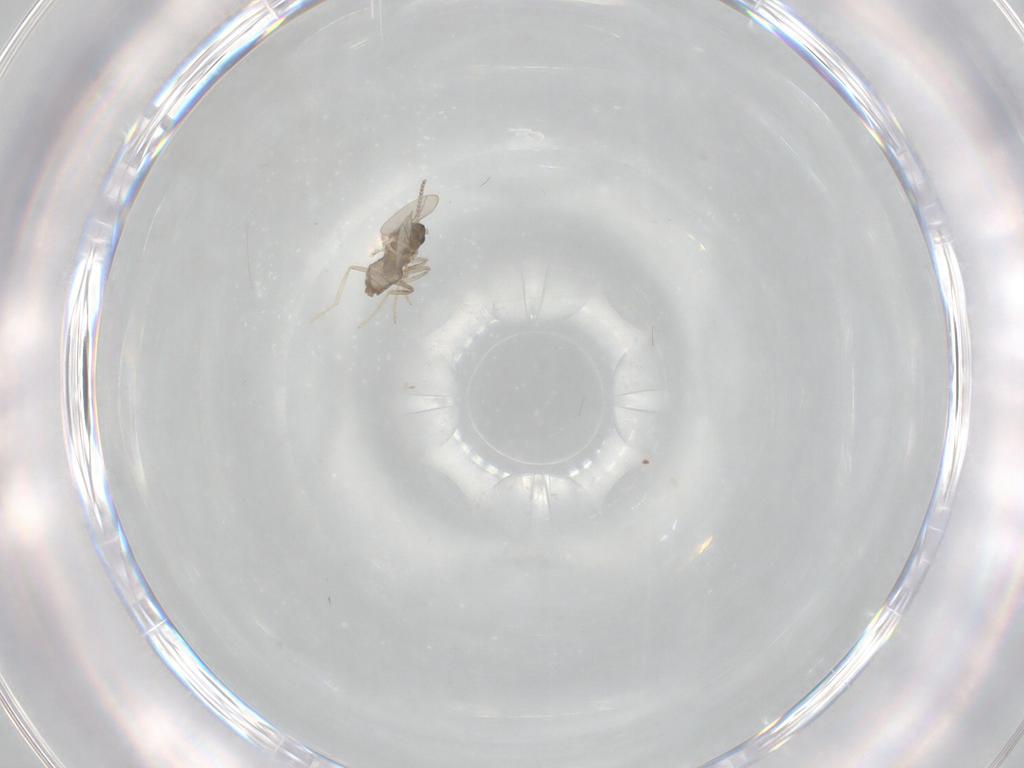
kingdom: Animalia
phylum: Arthropoda
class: Insecta
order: Diptera
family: Cecidomyiidae
